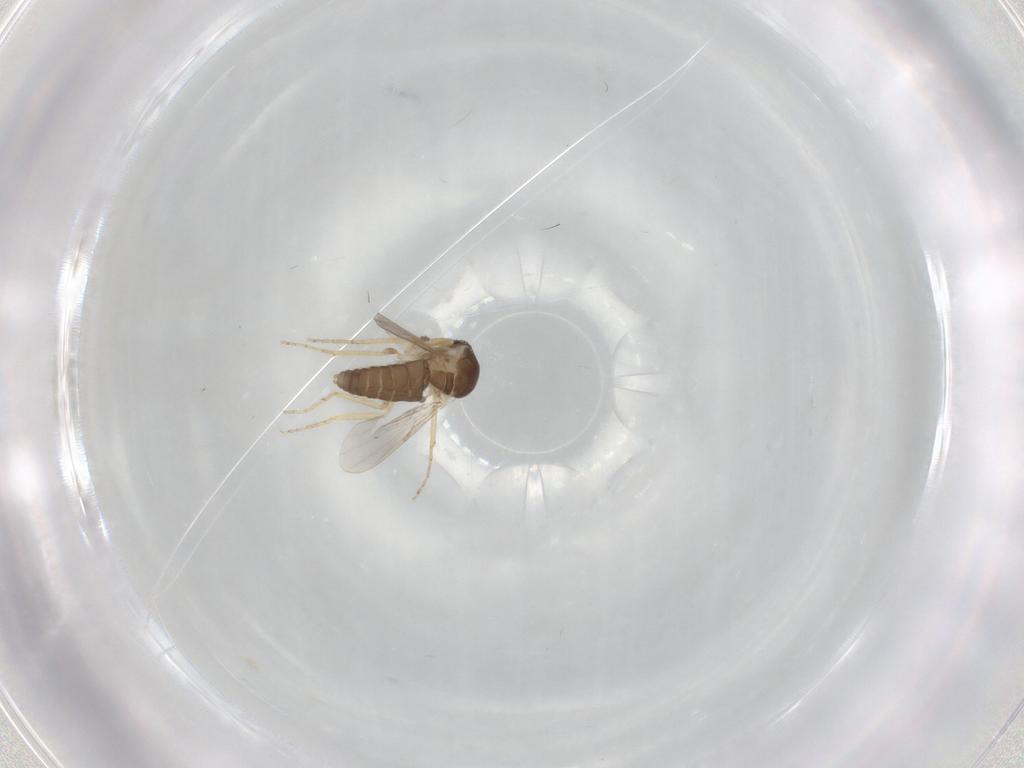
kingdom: Animalia
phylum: Arthropoda
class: Insecta
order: Diptera
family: Ceratopogonidae
